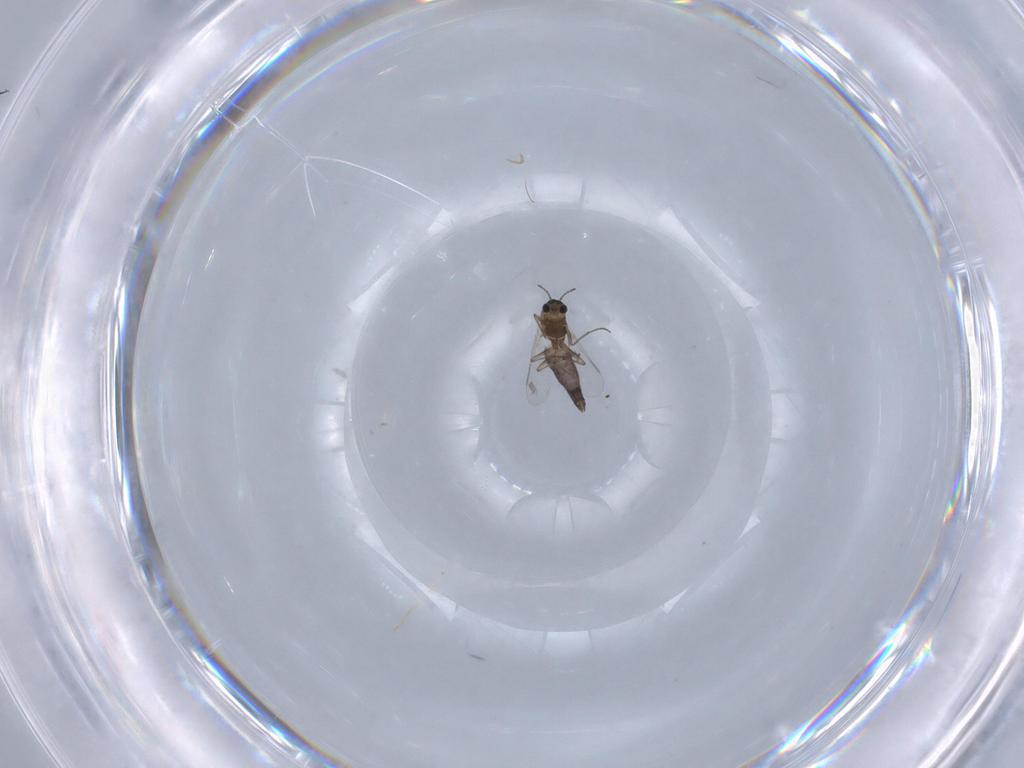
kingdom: Animalia
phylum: Arthropoda
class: Insecta
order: Diptera
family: Chironomidae
